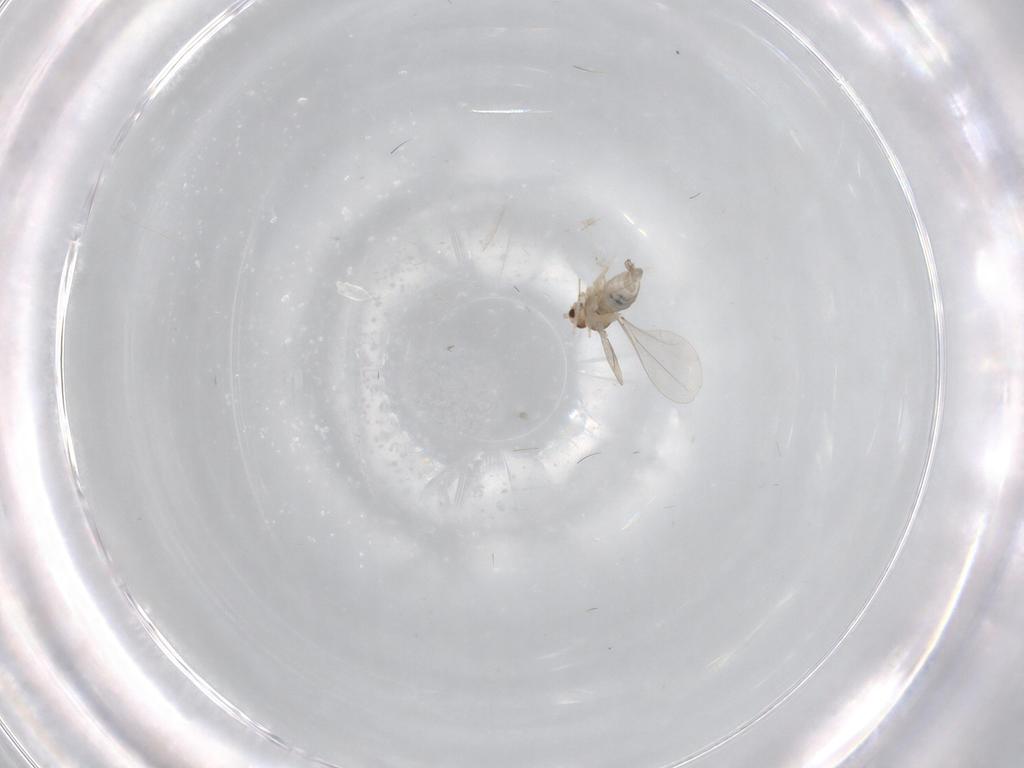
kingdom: Animalia
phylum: Arthropoda
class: Insecta
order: Diptera
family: Cecidomyiidae
